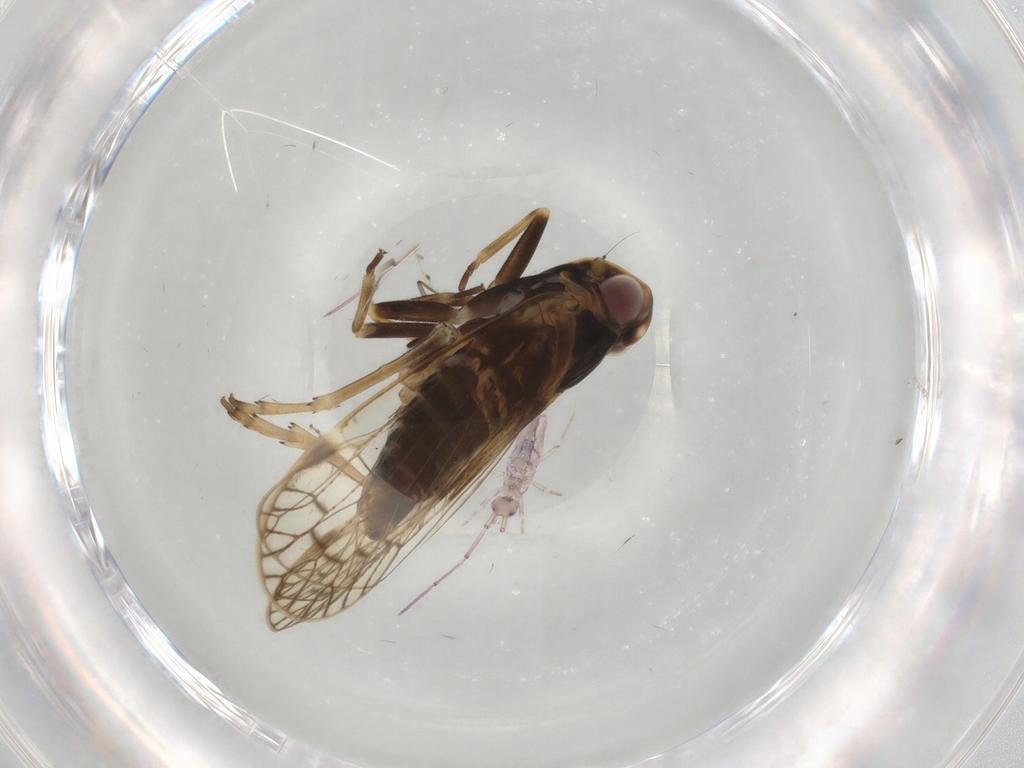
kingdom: Animalia
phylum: Arthropoda
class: Insecta
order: Hemiptera
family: Cixiidae
